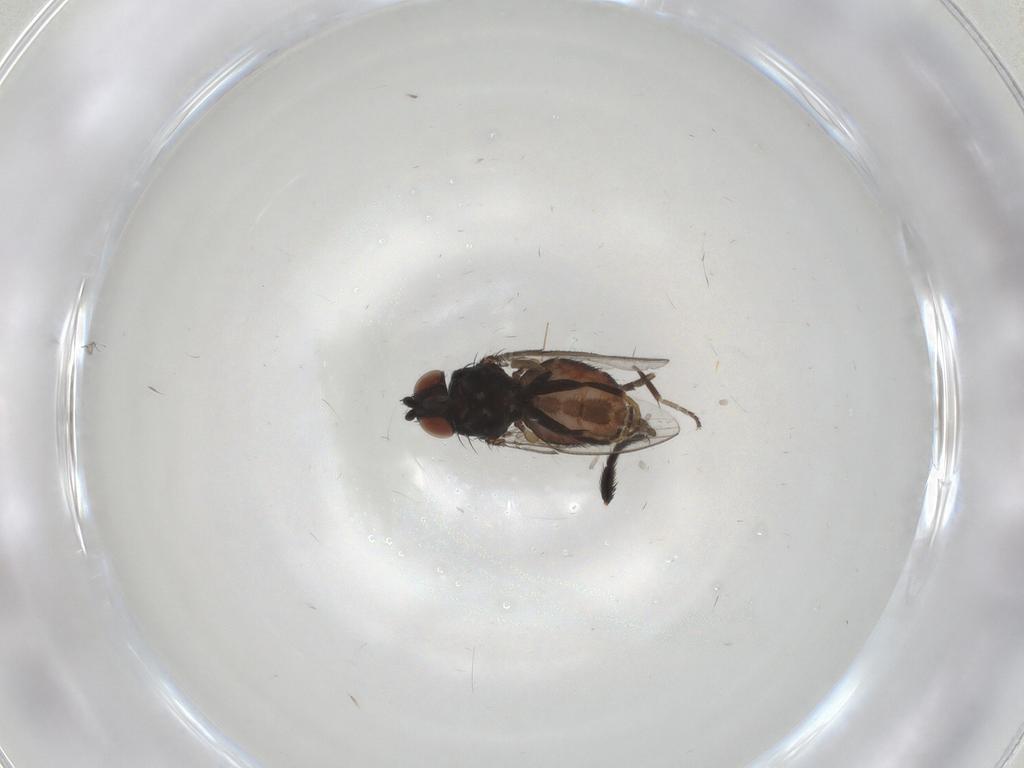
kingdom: Animalia
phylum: Arthropoda
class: Insecta
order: Diptera
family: Milichiidae
